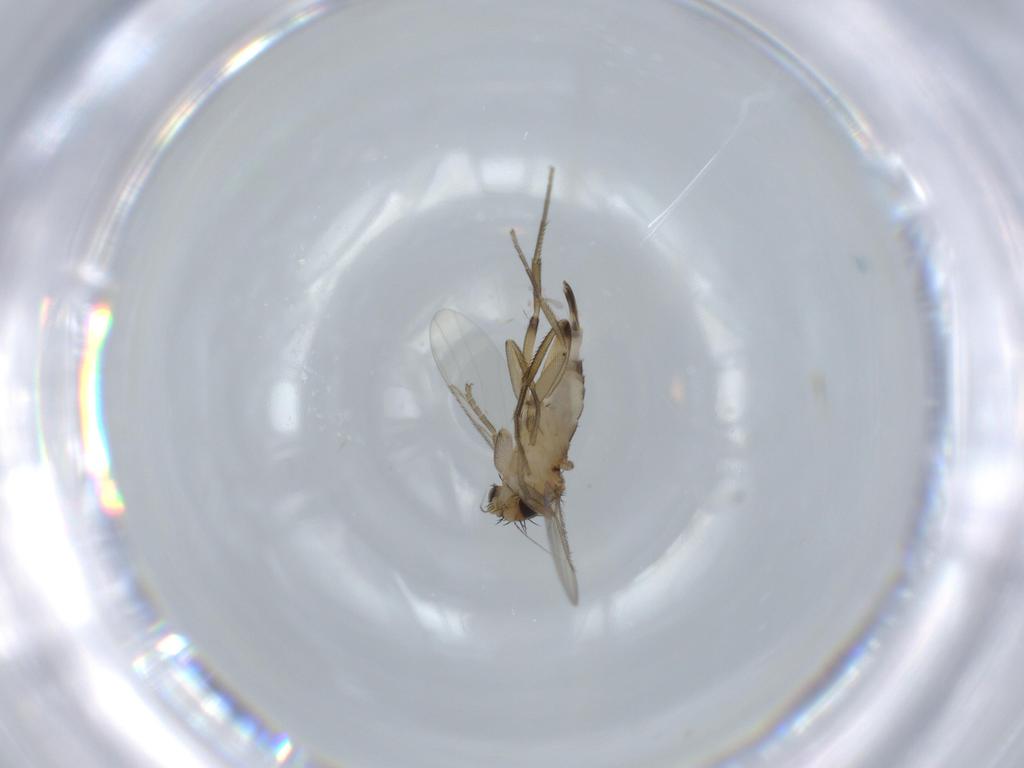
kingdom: Animalia
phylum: Arthropoda
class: Insecta
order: Diptera
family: Phoridae
